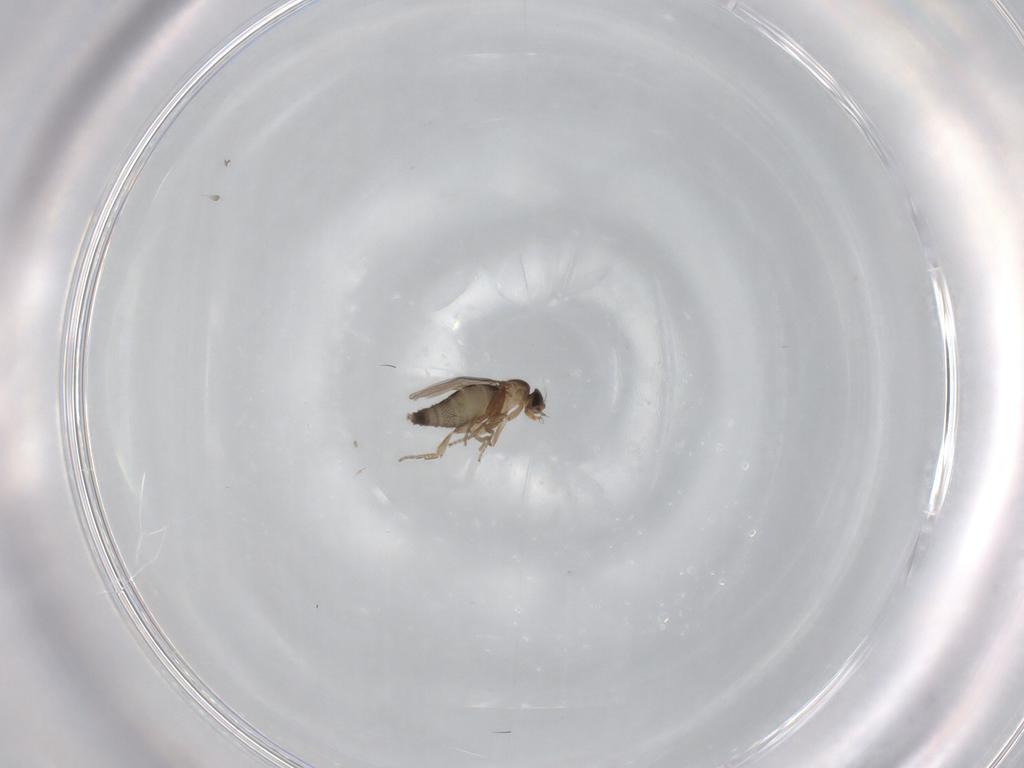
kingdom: Animalia
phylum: Arthropoda
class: Insecta
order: Diptera
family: Phoridae
